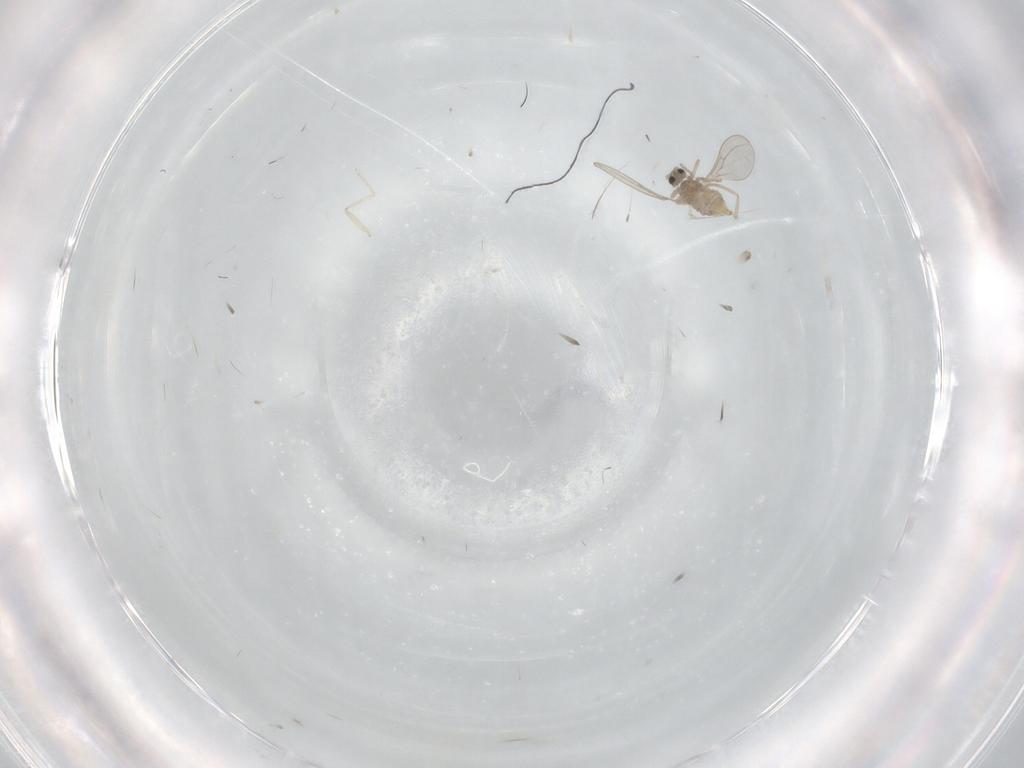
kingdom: Animalia
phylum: Arthropoda
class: Insecta
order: Diptera
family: Cecidomyiidae
